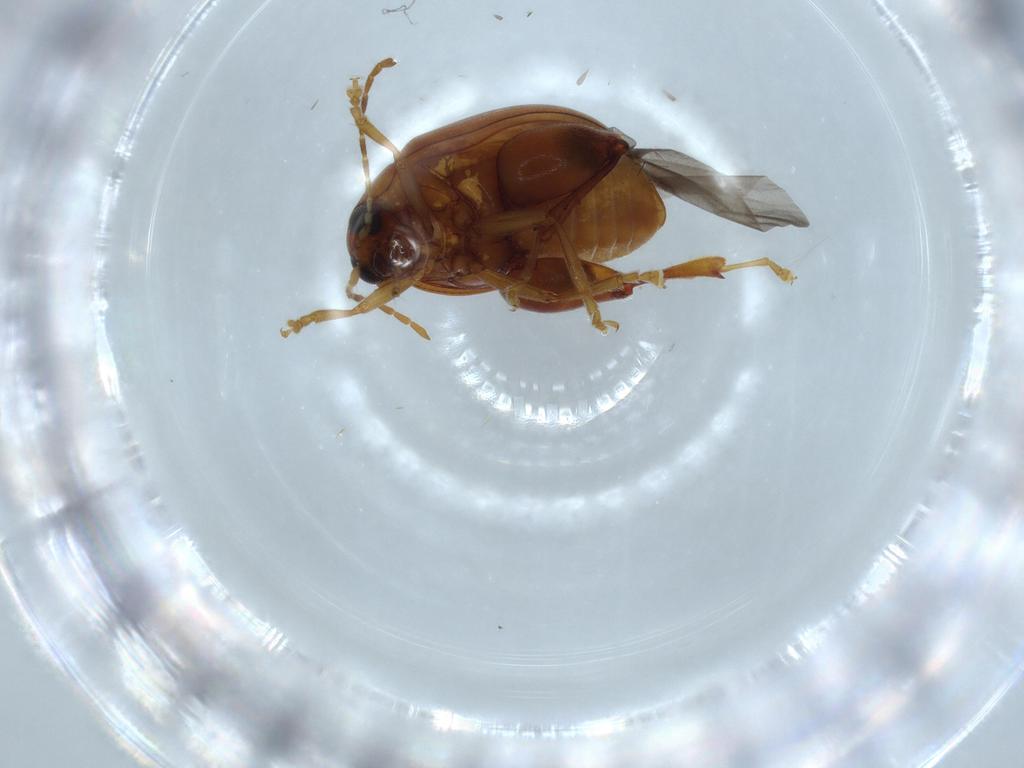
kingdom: Animalia
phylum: Arthropoda
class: Insecta
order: Coleoptera
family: Chrysomelidae
